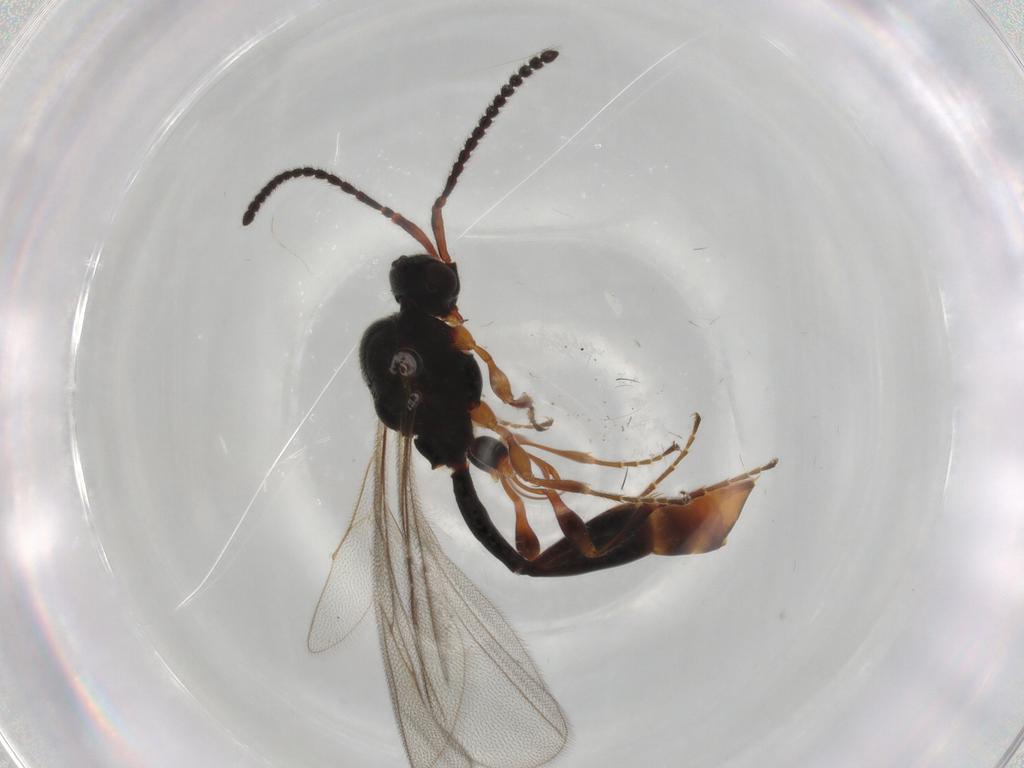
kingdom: Animalia
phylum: Arthropoda
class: Insecta
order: Hymenoptera
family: Diapriidae
